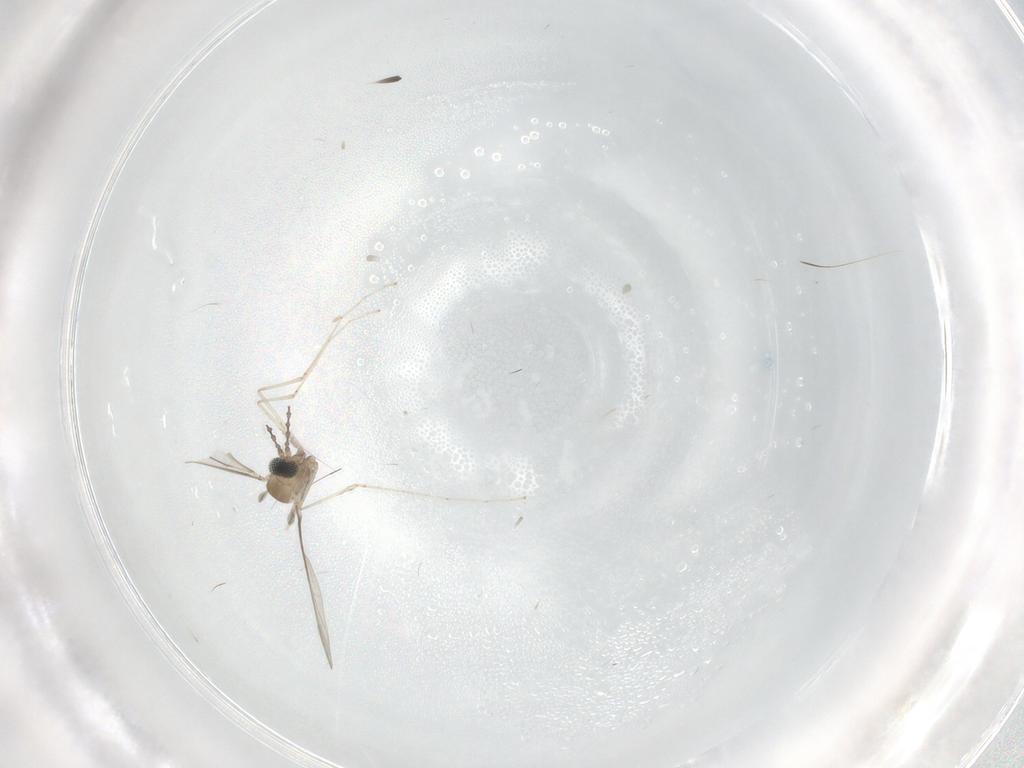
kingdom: Animalia
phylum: Arthropoda
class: Insecta
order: Diptera
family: Cecidomyiidae
